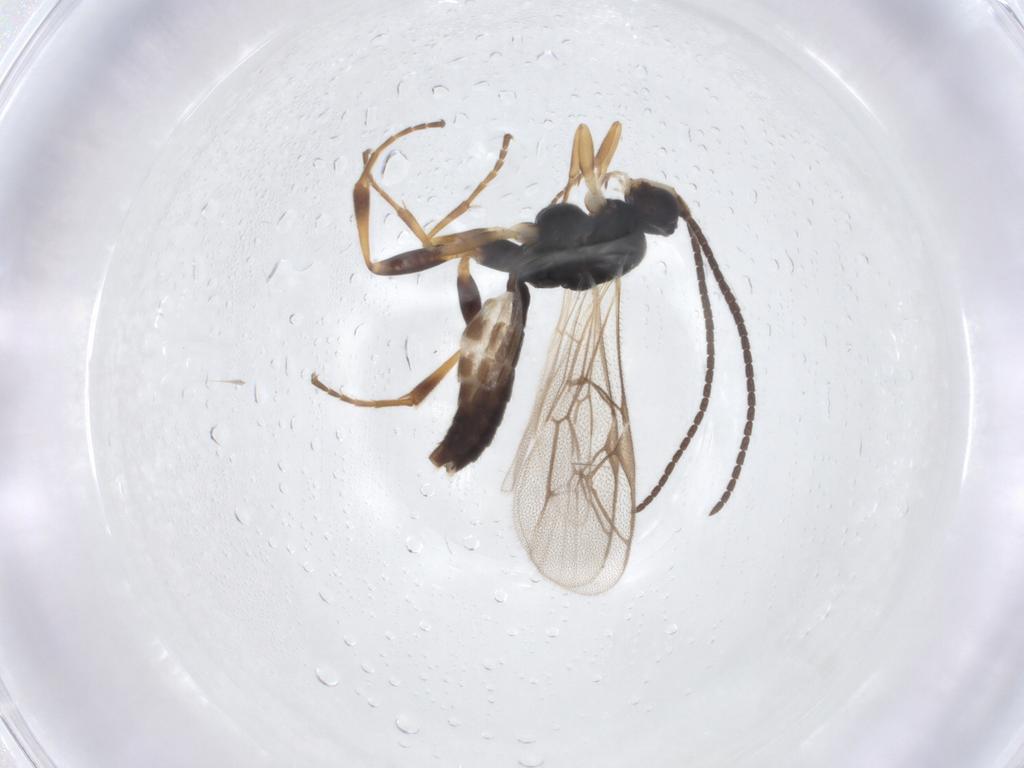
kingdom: Animalia
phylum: Arthropoda
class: Insecta
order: Hymenoptera
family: Ichneumonidae
